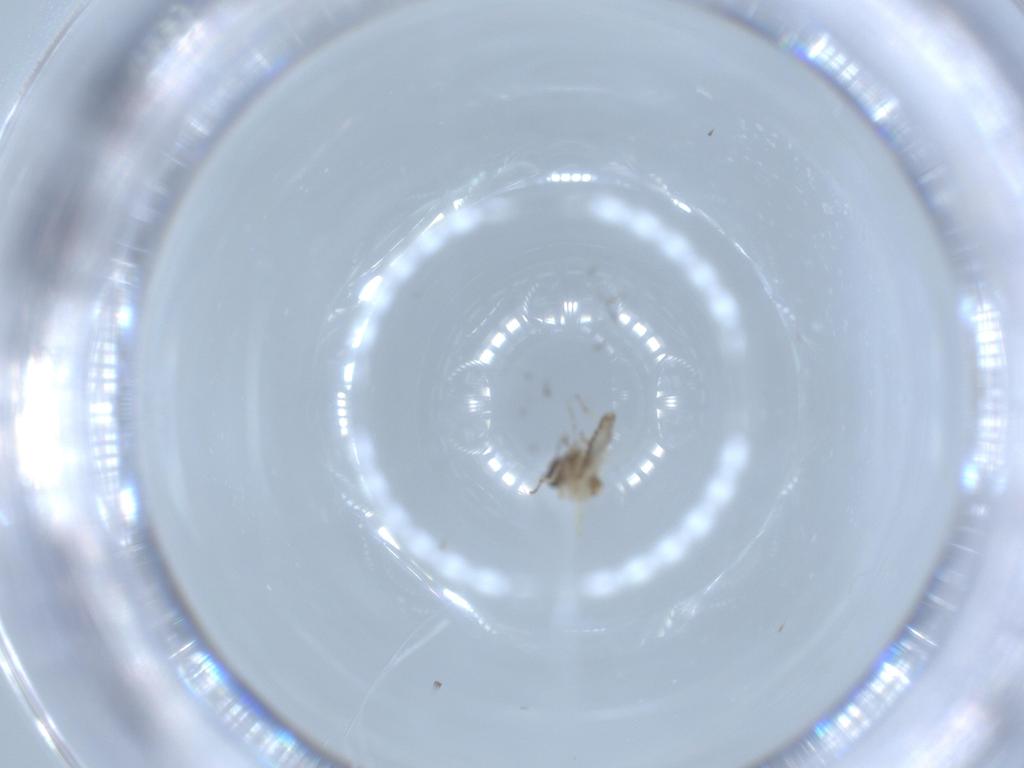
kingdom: Animalia
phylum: Arthropoda
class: Insecta
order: Diptera
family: Ceratopogonidae
